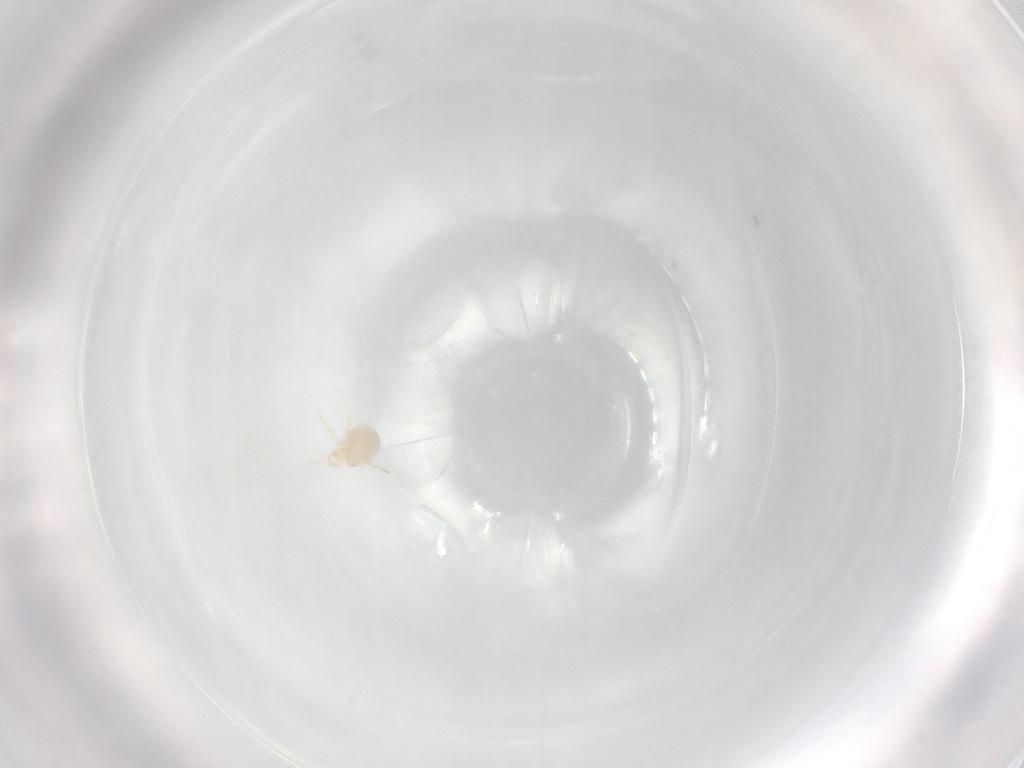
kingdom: Animalia
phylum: Arthropoda
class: Arachnida
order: Trombidiformes
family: Sperchontidae
